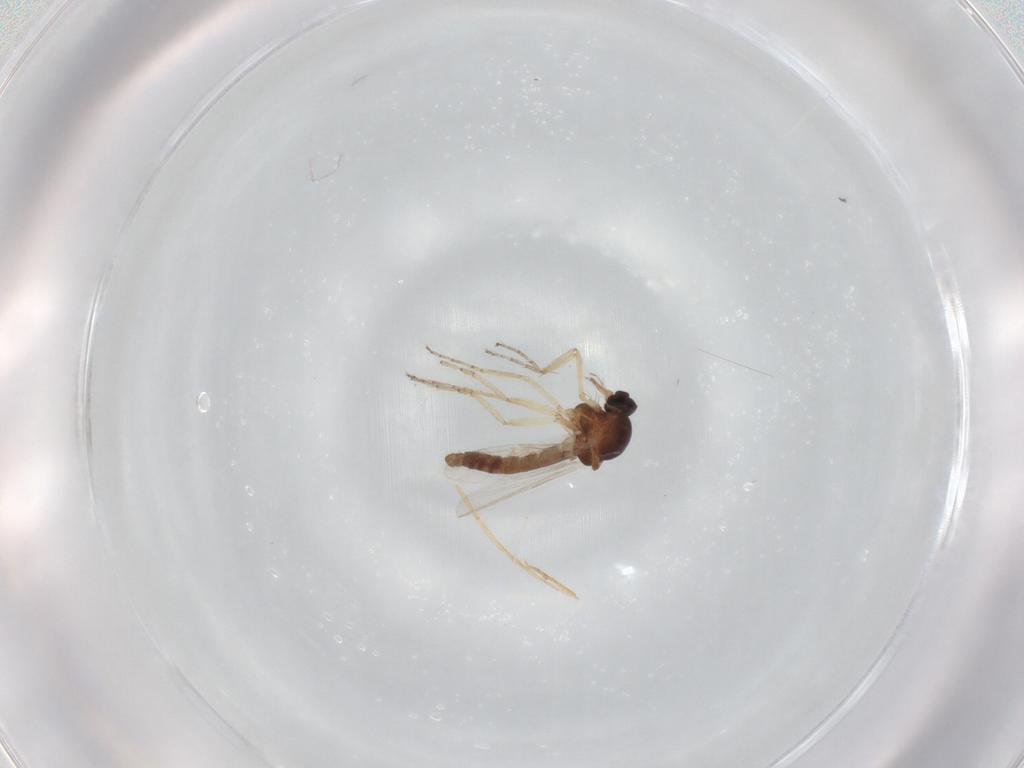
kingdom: Animalia
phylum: Arthropoda
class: Insecta
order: Diptera
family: Ceratopogonidae
